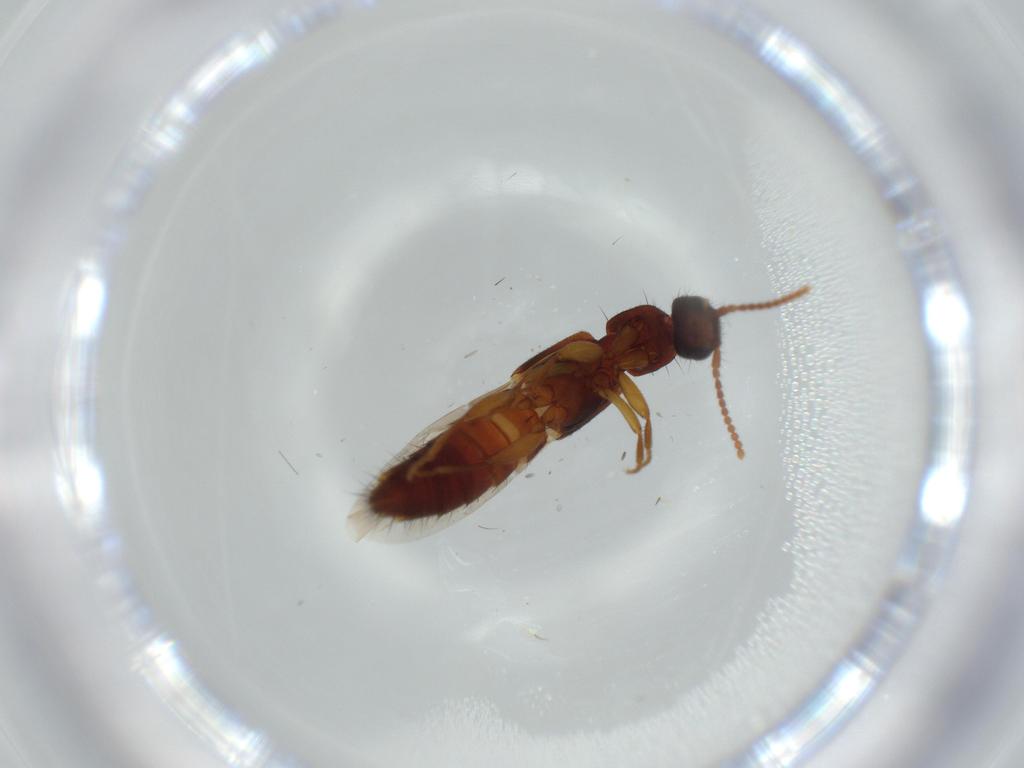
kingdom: Animalia
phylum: Arthropoda
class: Insecta
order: Coleoptera
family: Staphylinidae
